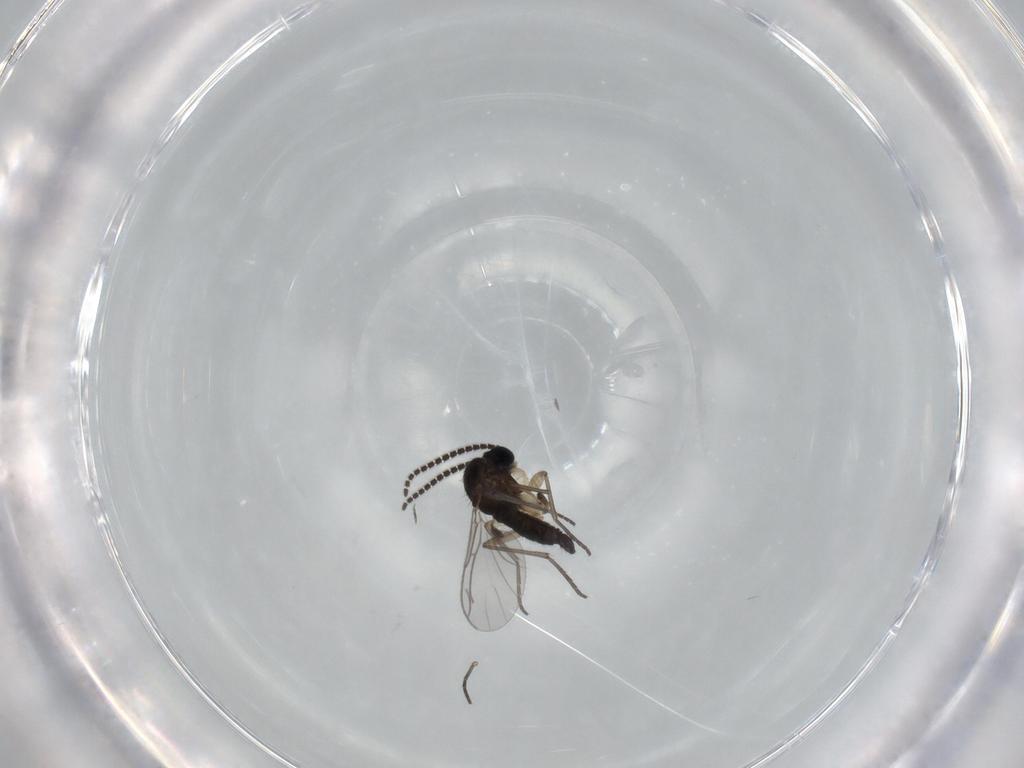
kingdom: Animalia
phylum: Arthropoda
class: Insecta
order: Diptera
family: Sciaridae
